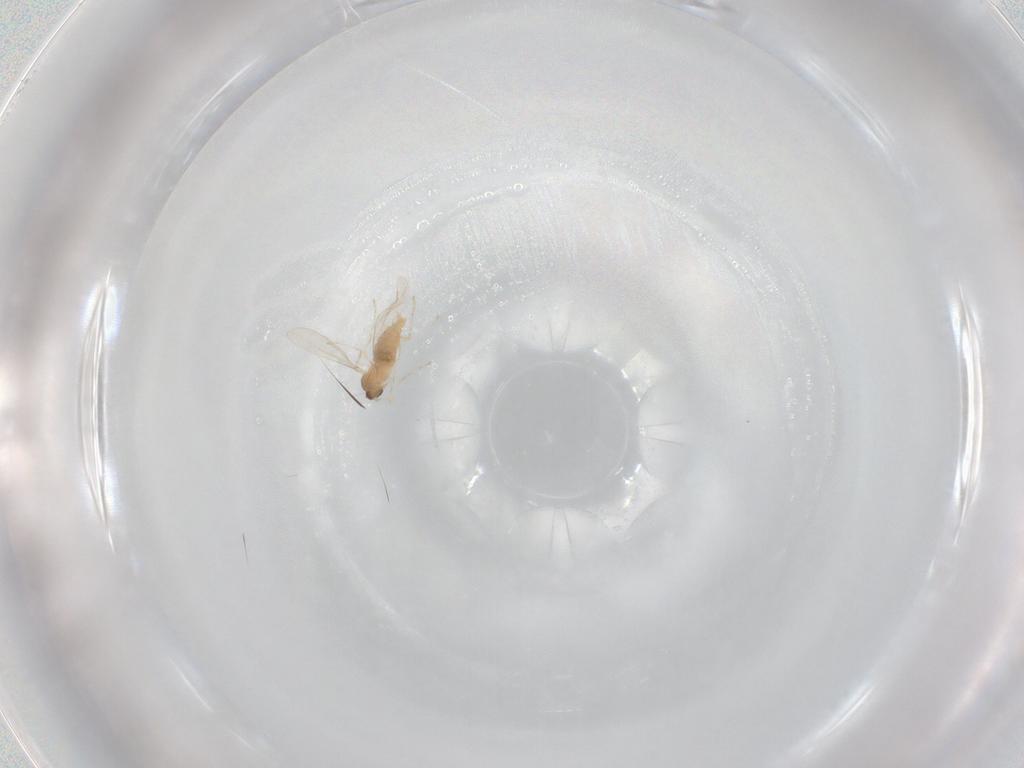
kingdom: Animalia
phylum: Arthropoda
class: Insecta
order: Diptera
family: Cecidomyiidae
